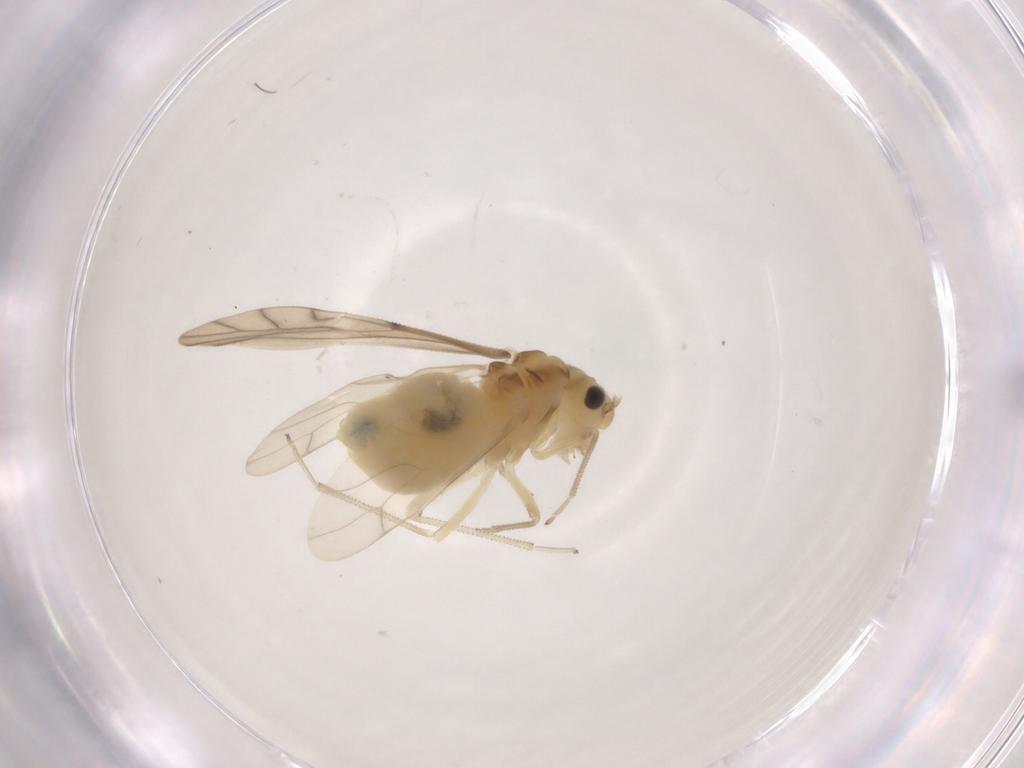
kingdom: Animalia
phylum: Arthropoda
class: Insecta
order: Psocodea
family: Caeciliusidae
